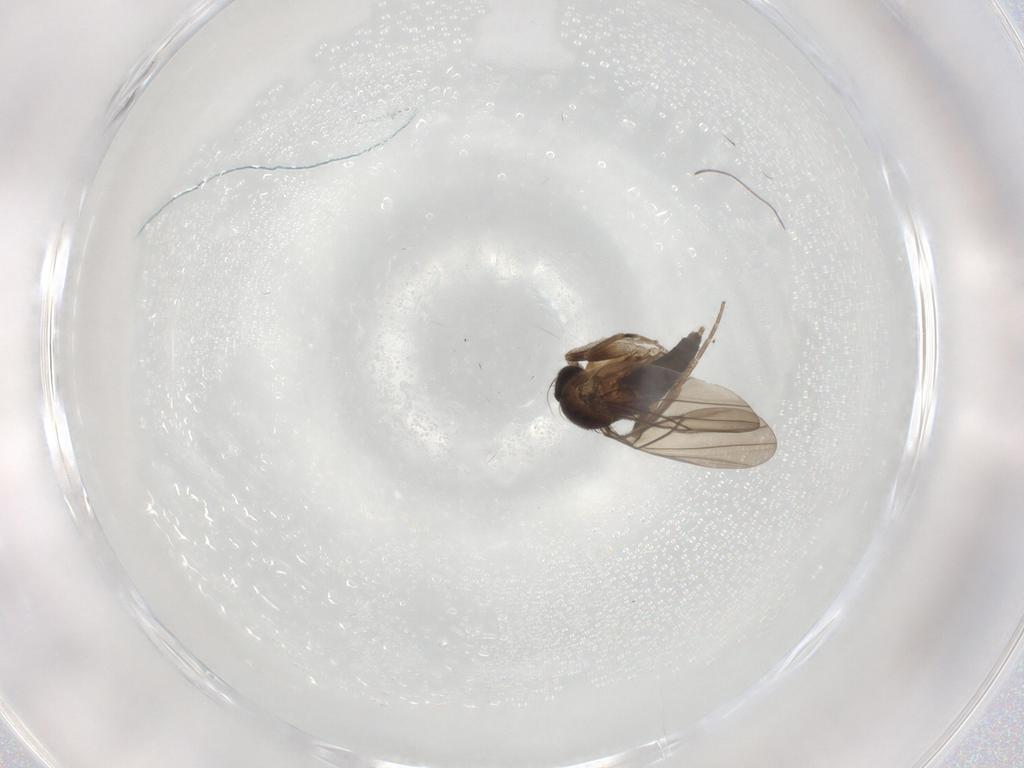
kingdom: Animalia
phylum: Arthropoda
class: Insecta
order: Diptera
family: Phoridae
